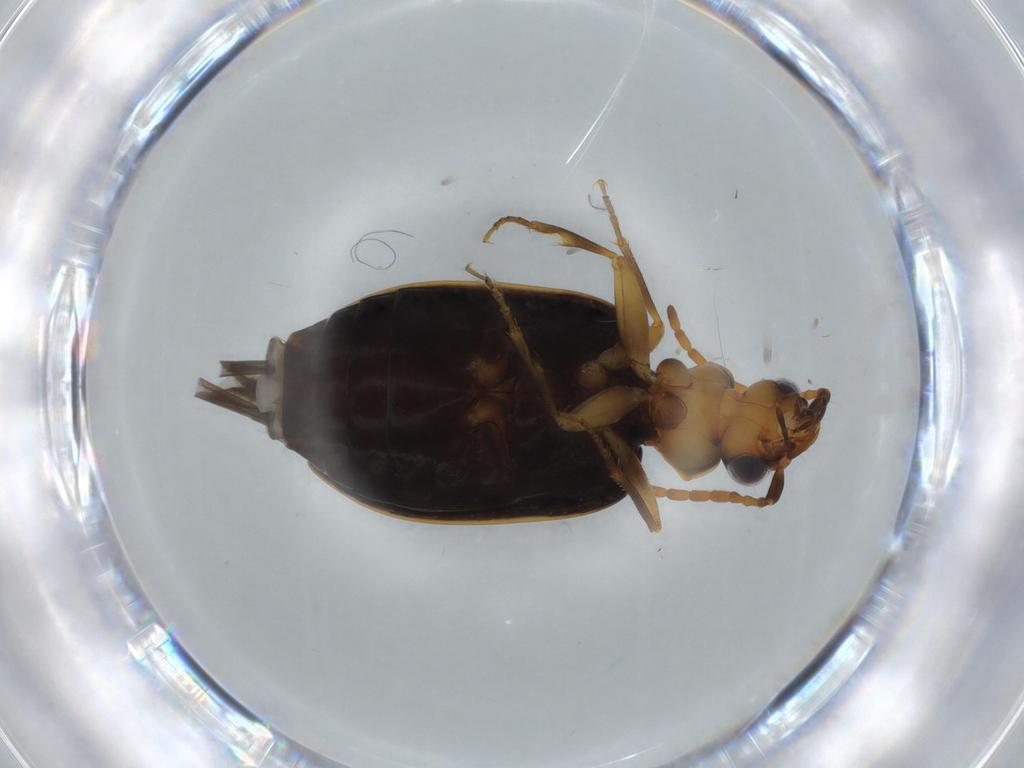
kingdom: Animalia
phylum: Arthropoda
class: Insecta
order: Coleoptera
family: Carabidae
